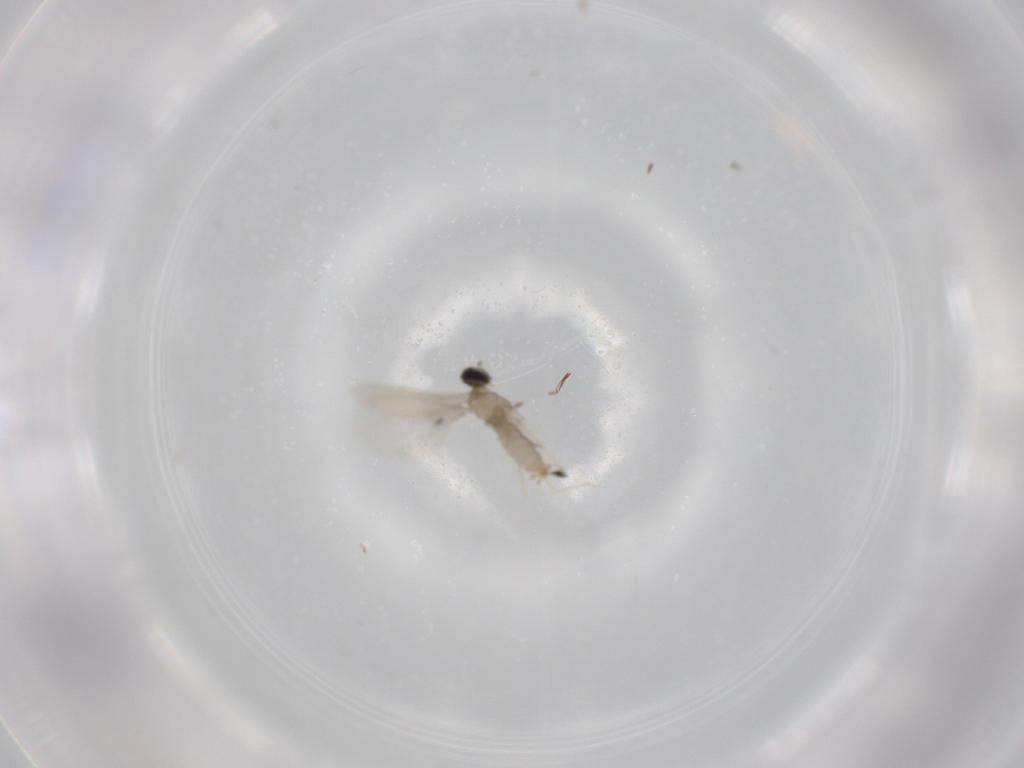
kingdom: Animalia
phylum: Arthropoda
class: Insecta
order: Diptera
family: Cecidomyiidae
